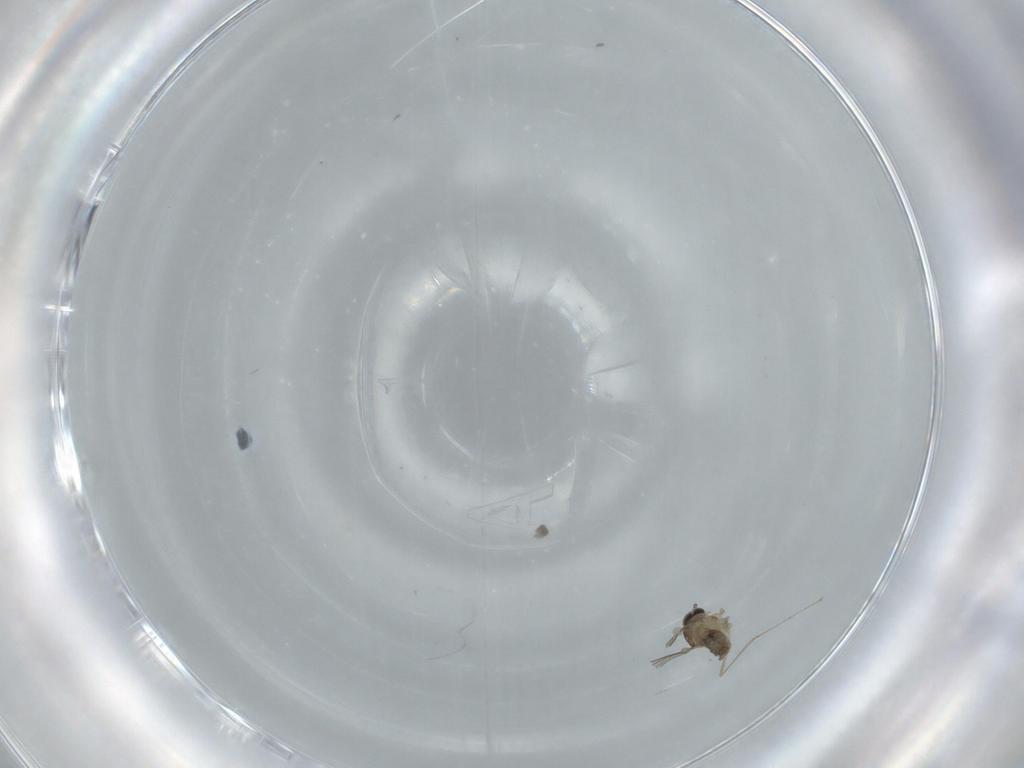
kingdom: Animalia
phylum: Arthropoda
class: Insecta
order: Diptera
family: Cecidomyiidae
